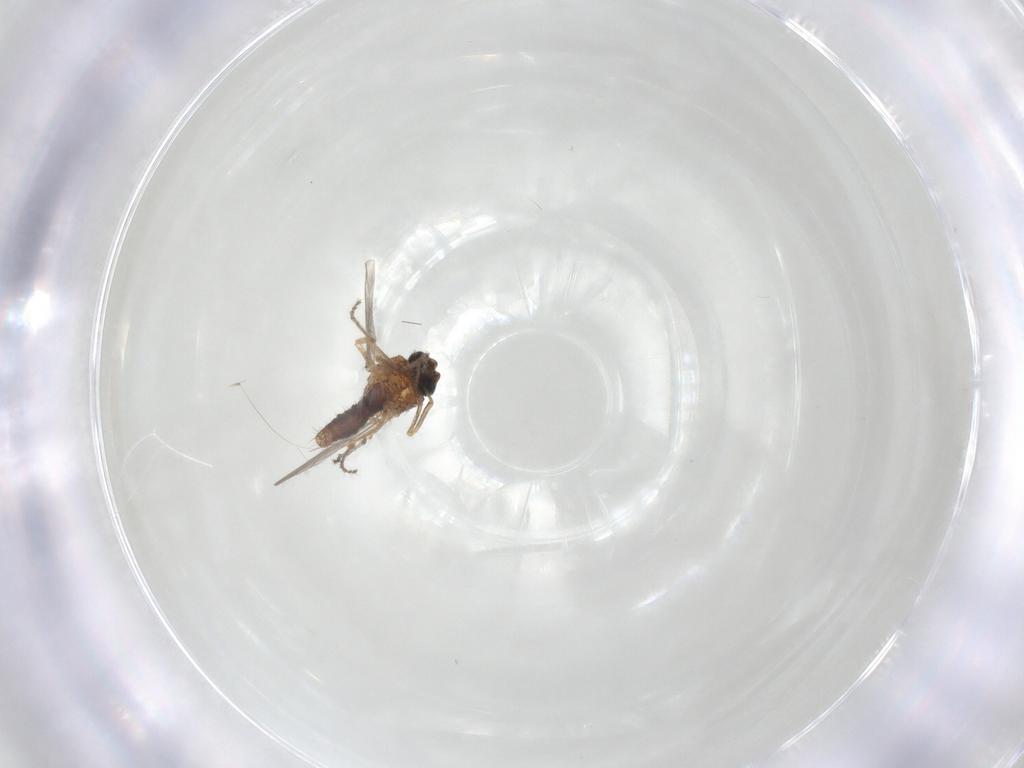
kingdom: Animalia
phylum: Arthropoda
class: Insecta
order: Diptera
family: Ceratopogonidae
